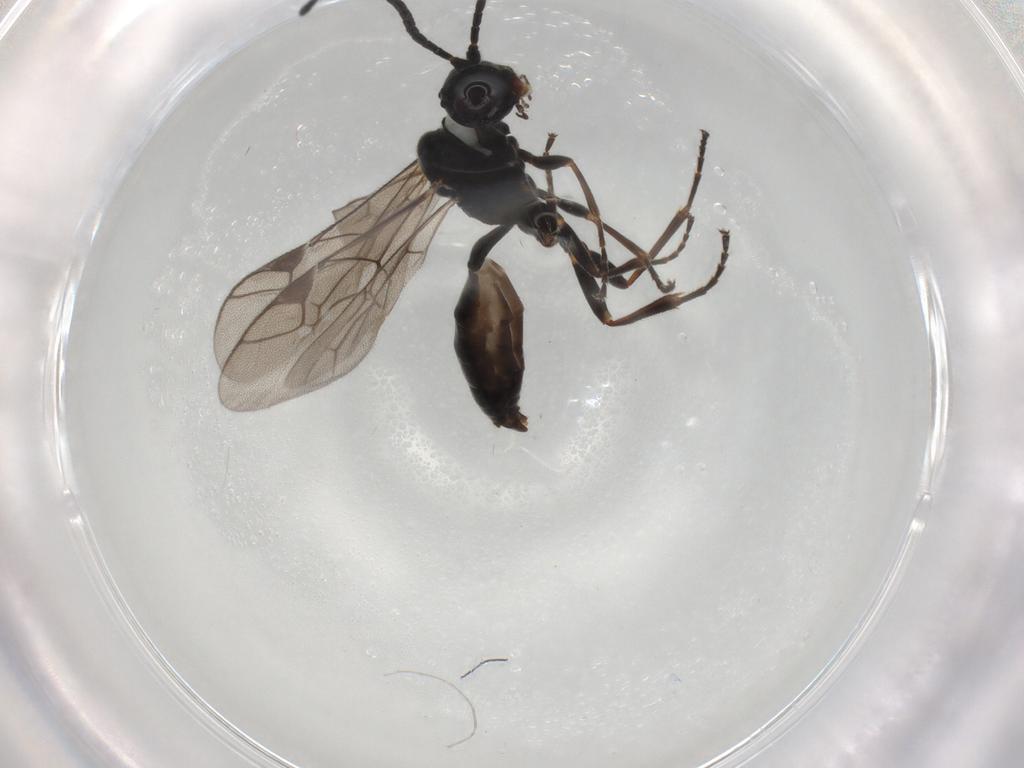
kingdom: Animalia
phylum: Arthropoda
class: Insecta
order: Hymenoptera
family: Ichneumonidae
